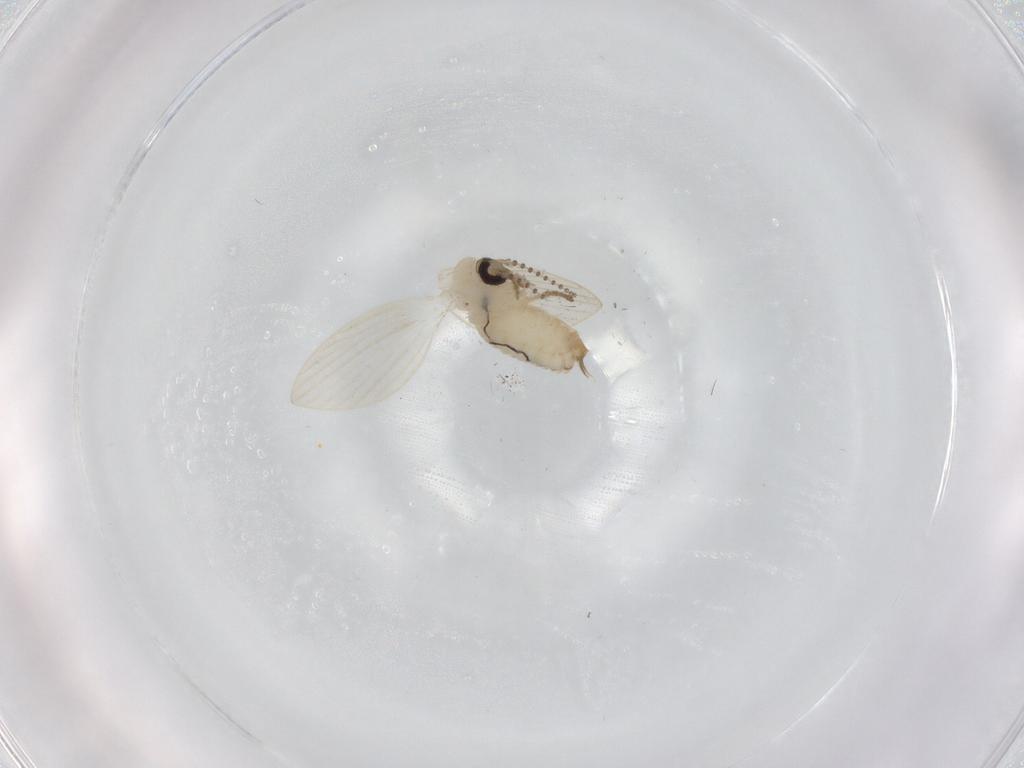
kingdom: Animalia
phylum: Arthropoda
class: Insecta
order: Diptera
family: Psychodidae
